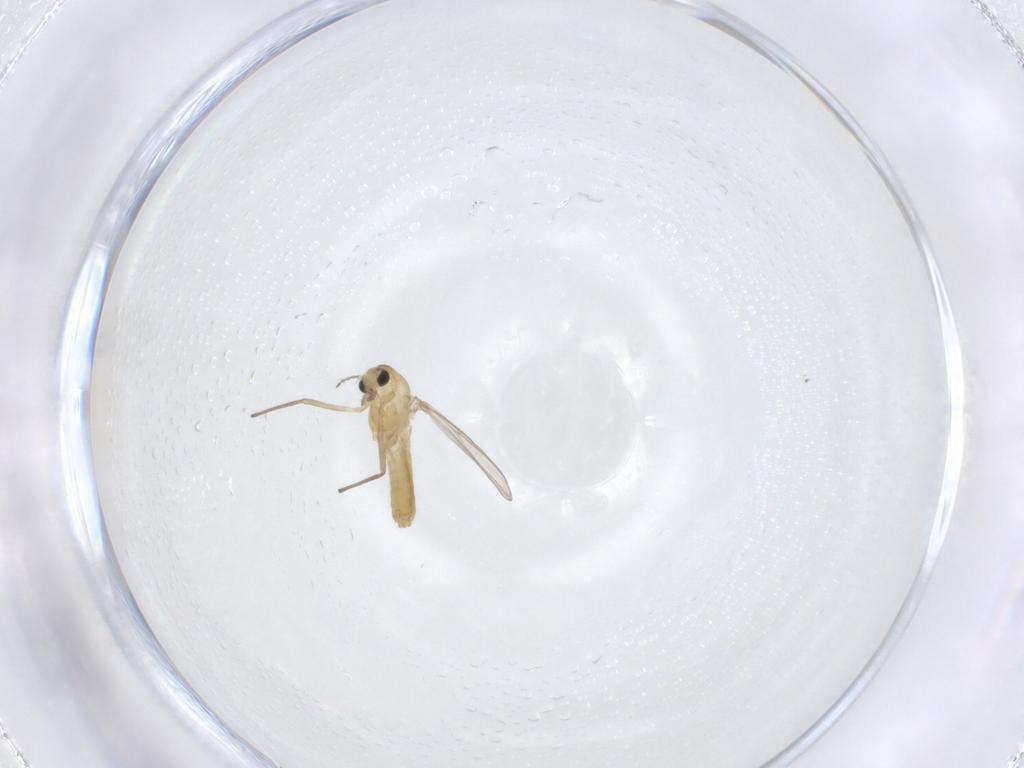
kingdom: Animalia
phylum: Arthropoda
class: Insecta
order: Diptera
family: Chironomidae
